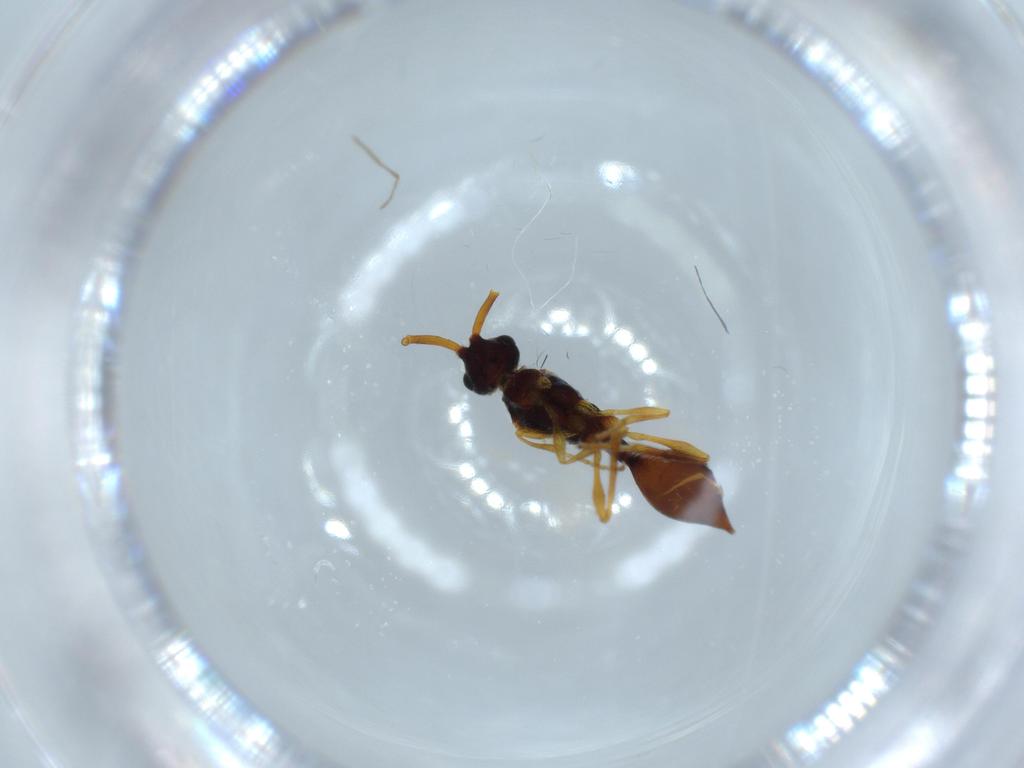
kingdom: Animalia
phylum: Arthropoda
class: Insecta
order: Hymenoptera
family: Diapriidae
